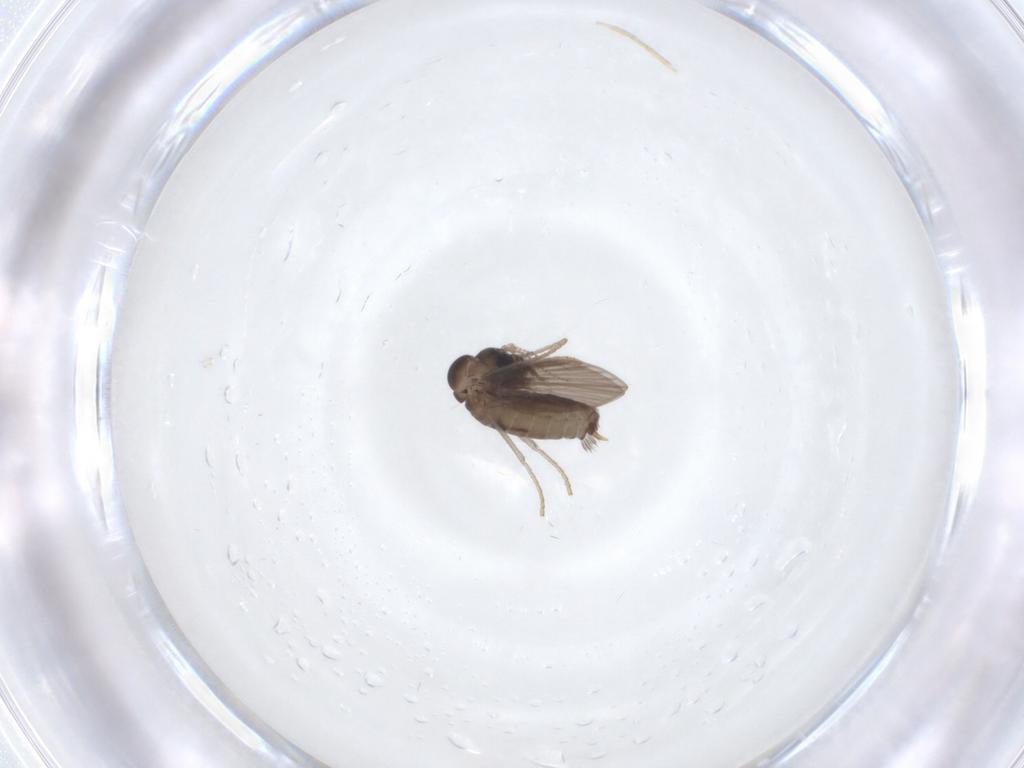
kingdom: Animalia
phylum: Arthropoda
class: Insecta
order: Diptera
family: Psychodidae
